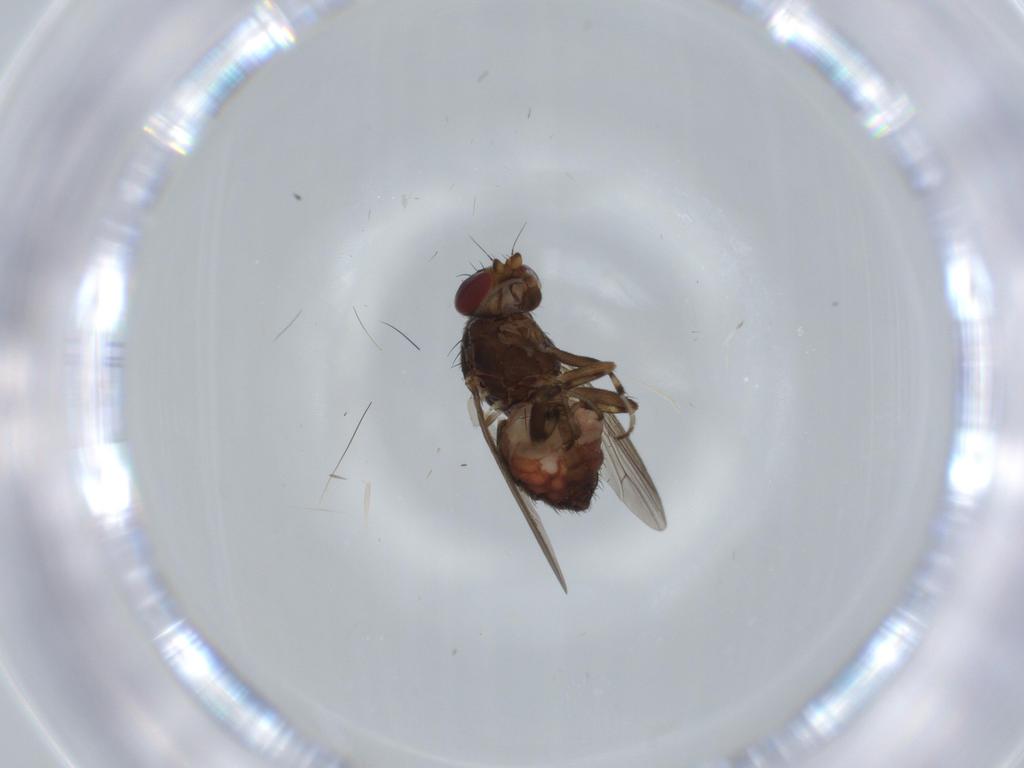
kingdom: Animalia
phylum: Arthropoda
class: Insecta
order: Diptera
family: Heleomyzidae
